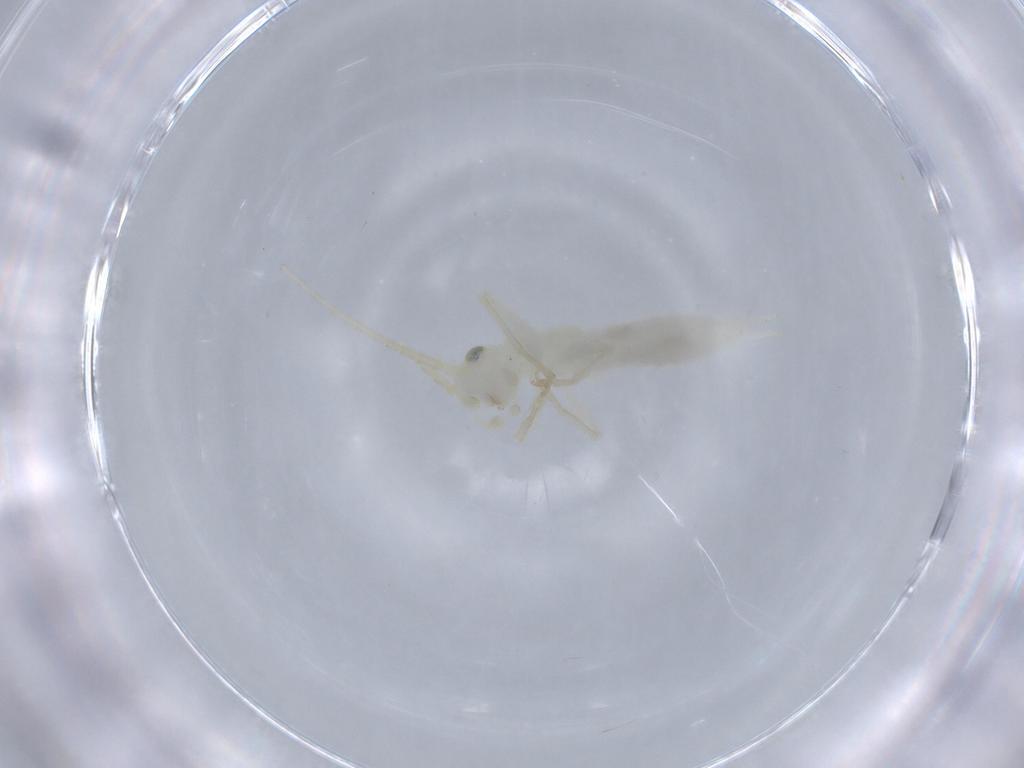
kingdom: Animalia
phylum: Arthropoda
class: Insecta
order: Orthoptera
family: Trigonidiidae
